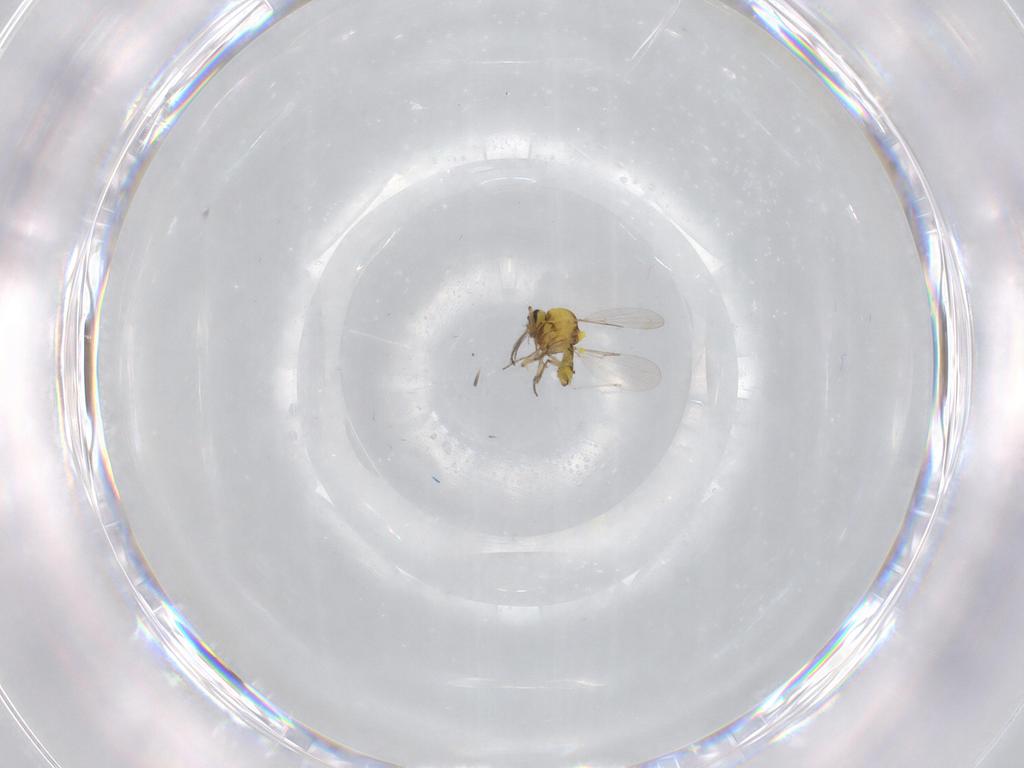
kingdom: Animalia
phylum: Arthropoda
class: Insecta
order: Diptera
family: Ceratopogonidae
